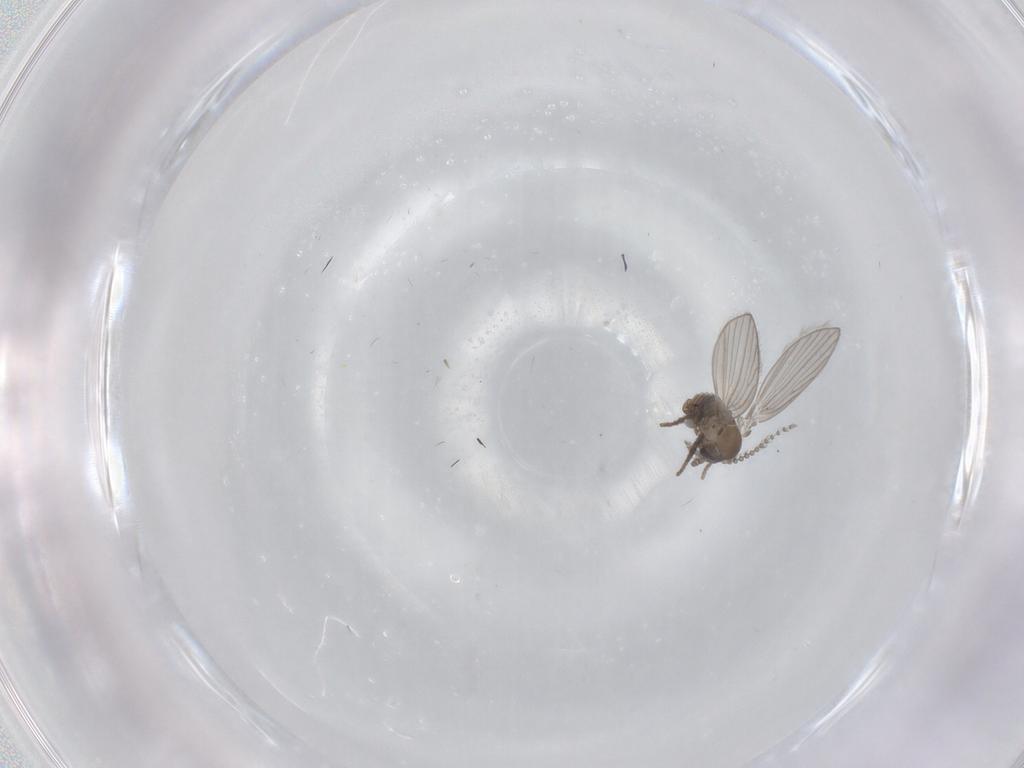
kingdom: Animalia
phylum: Arthropoda
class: Insecta
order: Diptera
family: Psychodidae
